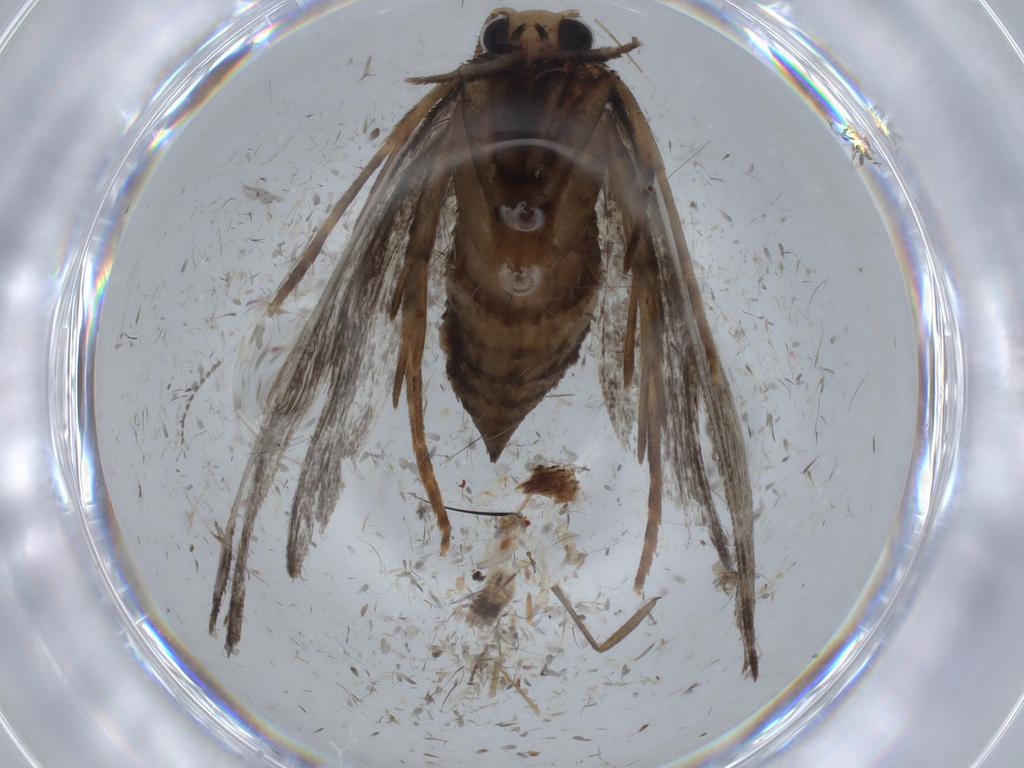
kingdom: Animalia
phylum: Arthropoda
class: Insecta
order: Lepidoptera
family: Tineidae
